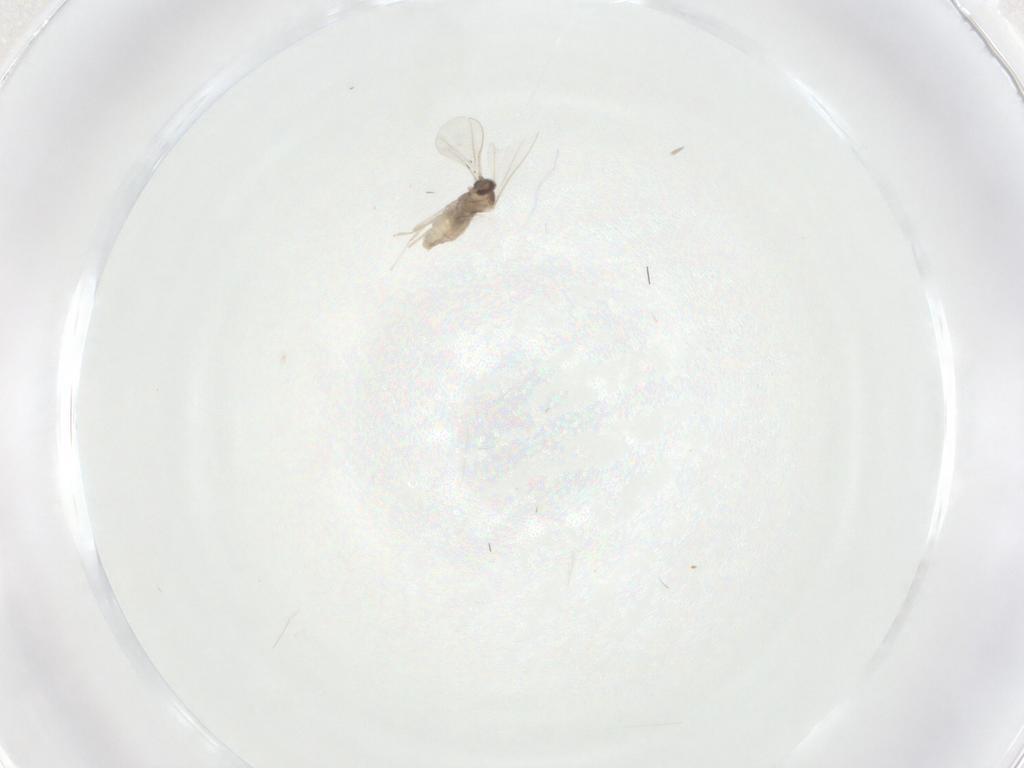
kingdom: Animalia
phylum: Arthropoda
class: Insecta
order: Diptera
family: Cecidomyiidae
